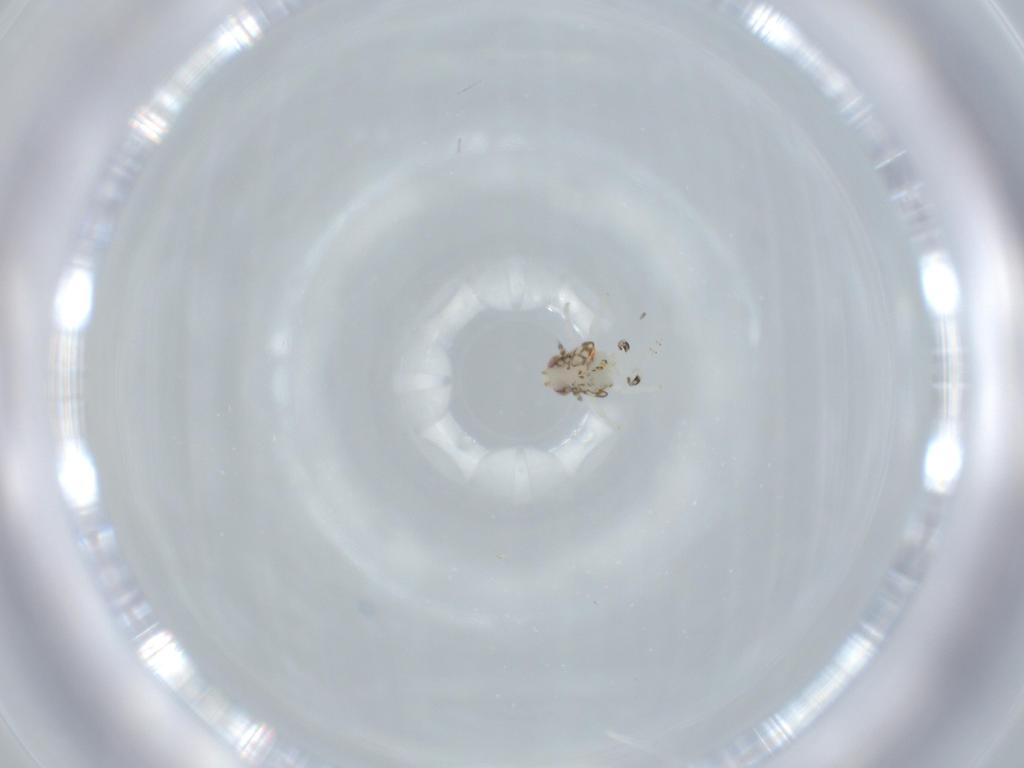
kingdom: Animalia
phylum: Arthropoda
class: Insecta
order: Hemiptera
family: Nogodinidae
